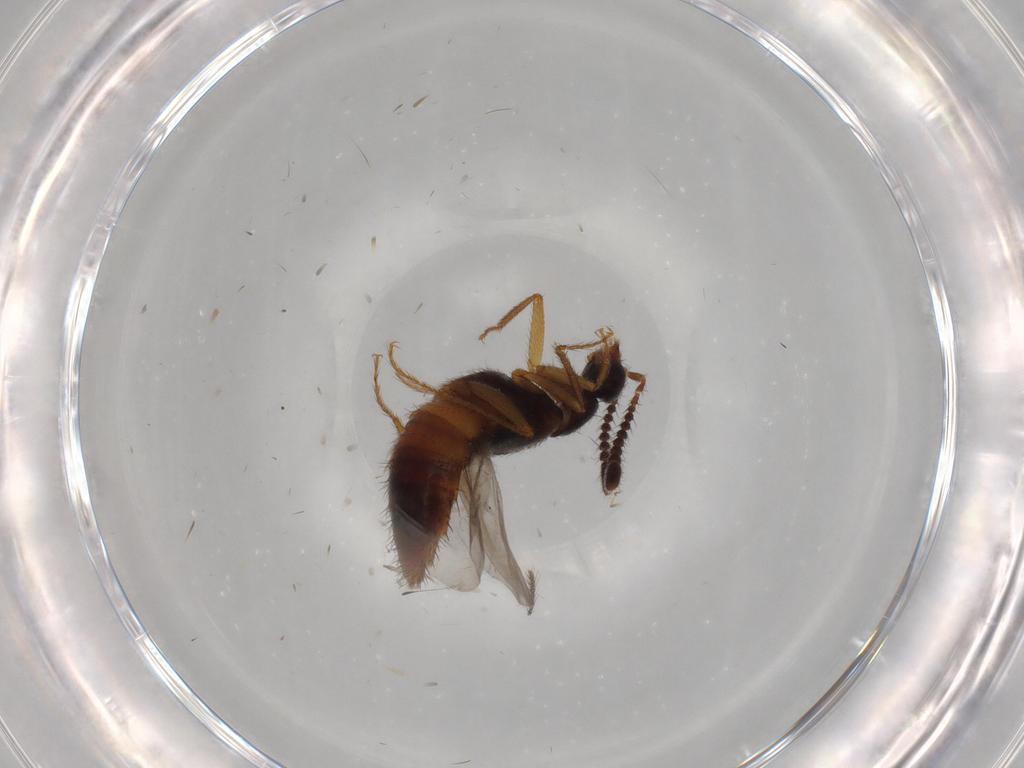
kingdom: Animalia
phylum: Arthropoda
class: Insecta
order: Coleoptera
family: Staphylinidae
